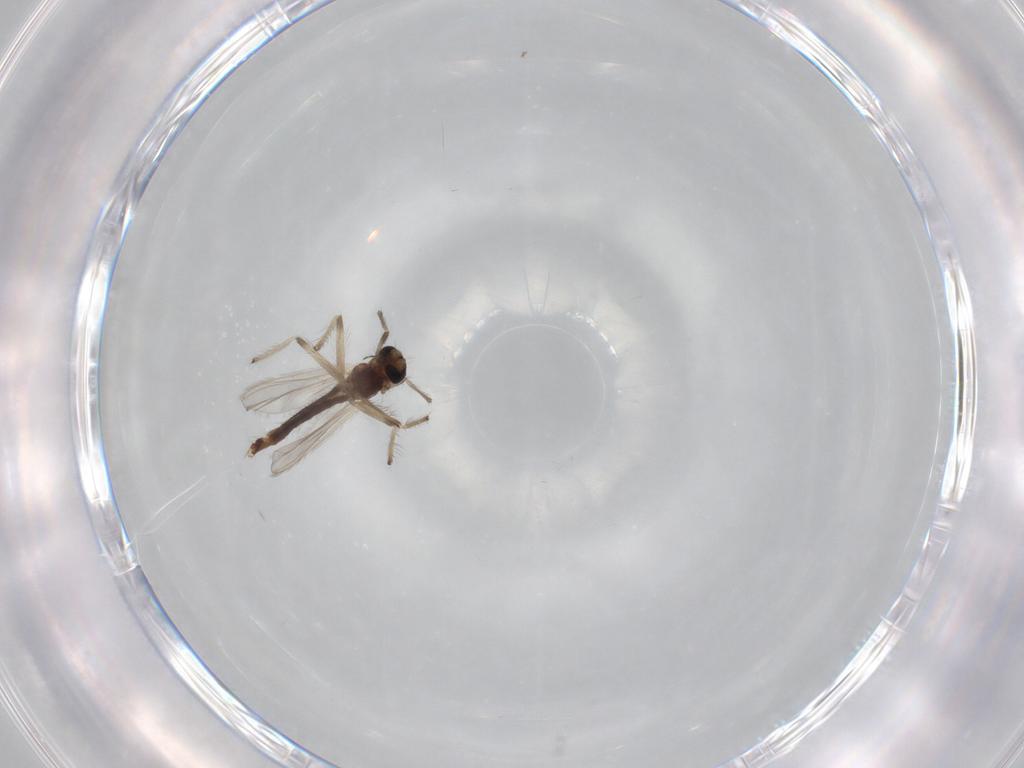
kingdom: Animalia
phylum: Arthropoda
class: Insecta
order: Diptera
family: Chironomidae
